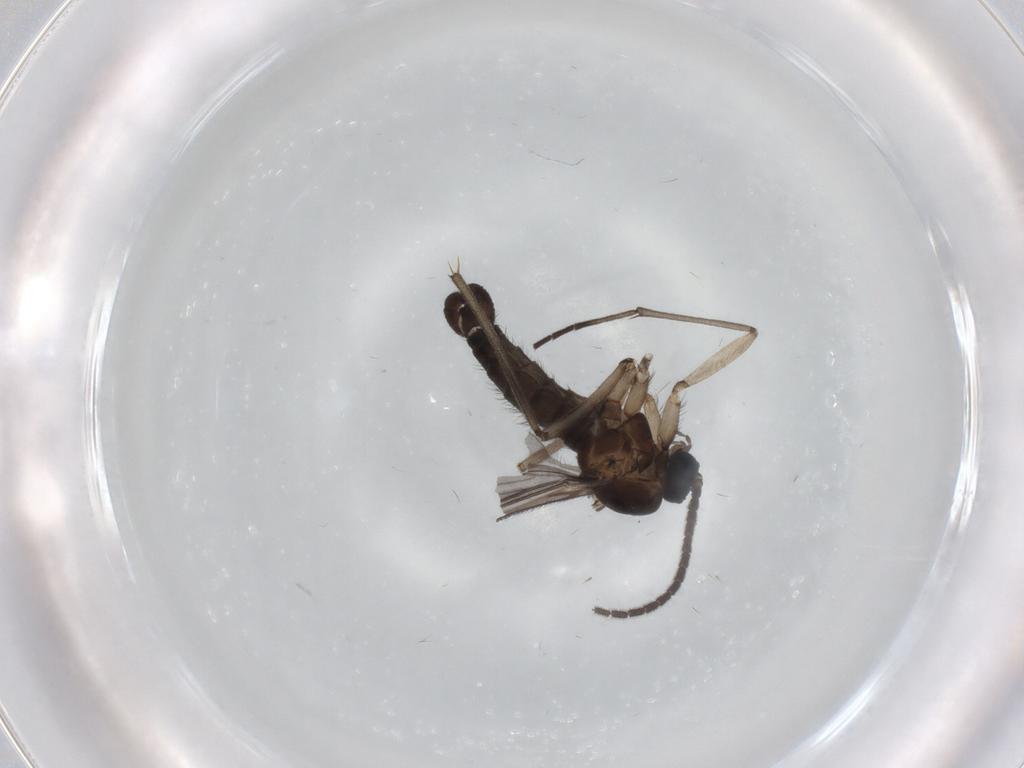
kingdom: Animalia
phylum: Arthropoda
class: Insecta
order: Diptera
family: Sciaridae
